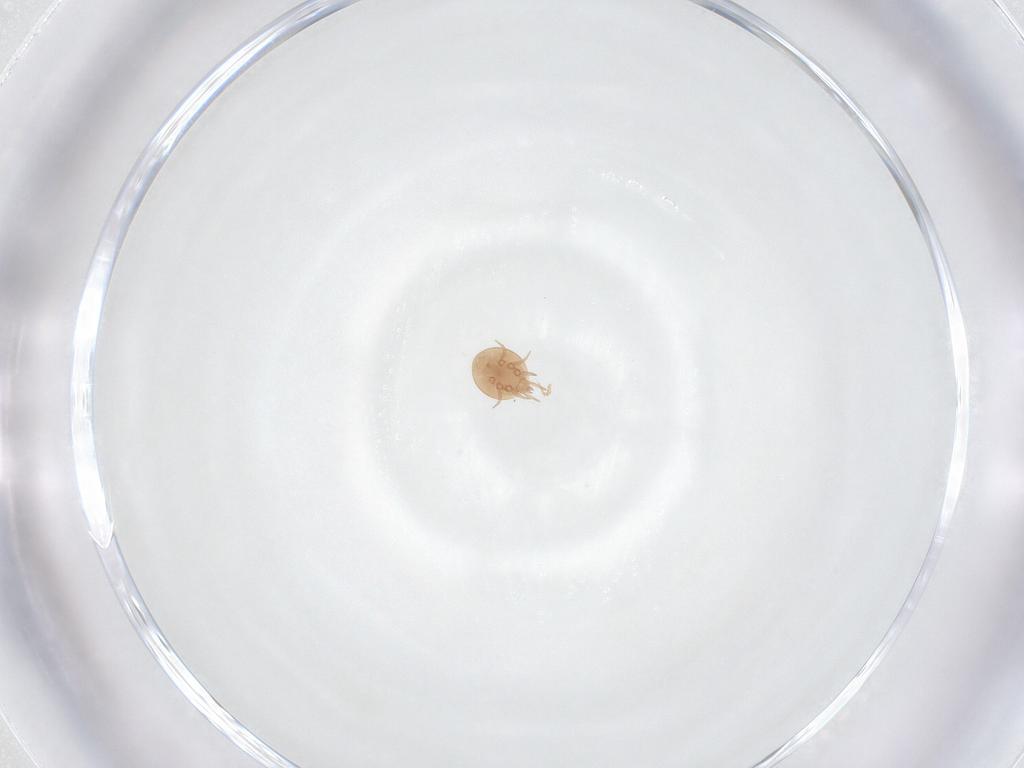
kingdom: Animalia
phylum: Arthropoda
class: Arachnida
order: Mesostigmata
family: Trematuridae
